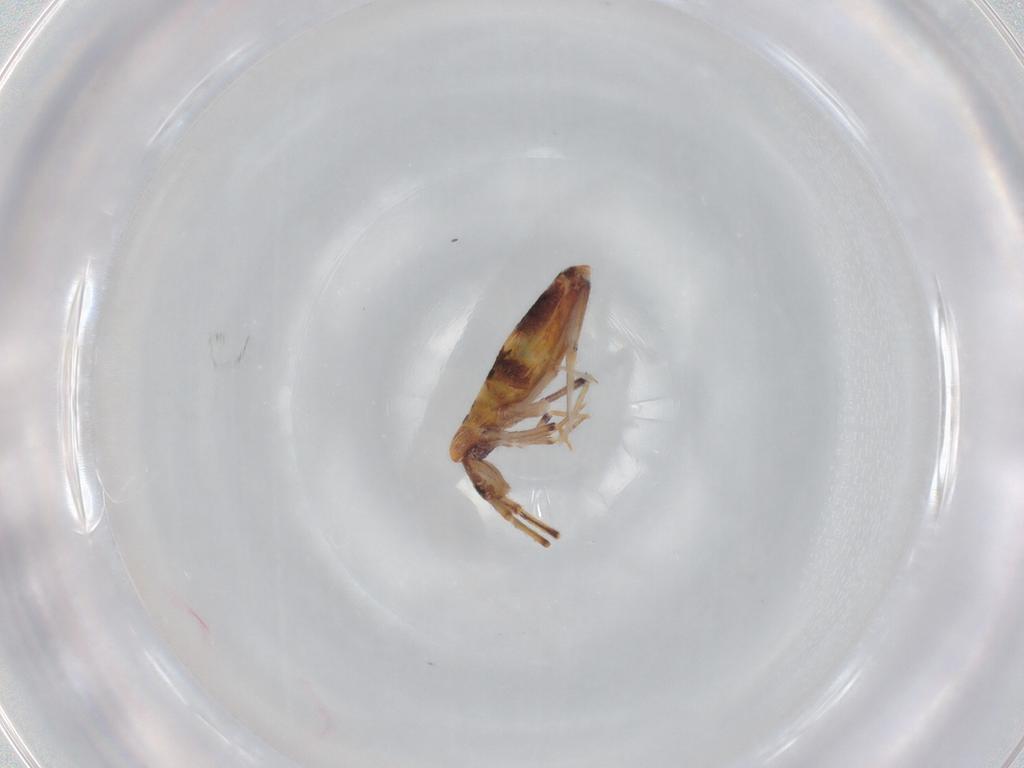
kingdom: Animalia
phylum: Arthropoda
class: Collembola
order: Entomobryomorpha
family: Entomobryidae
